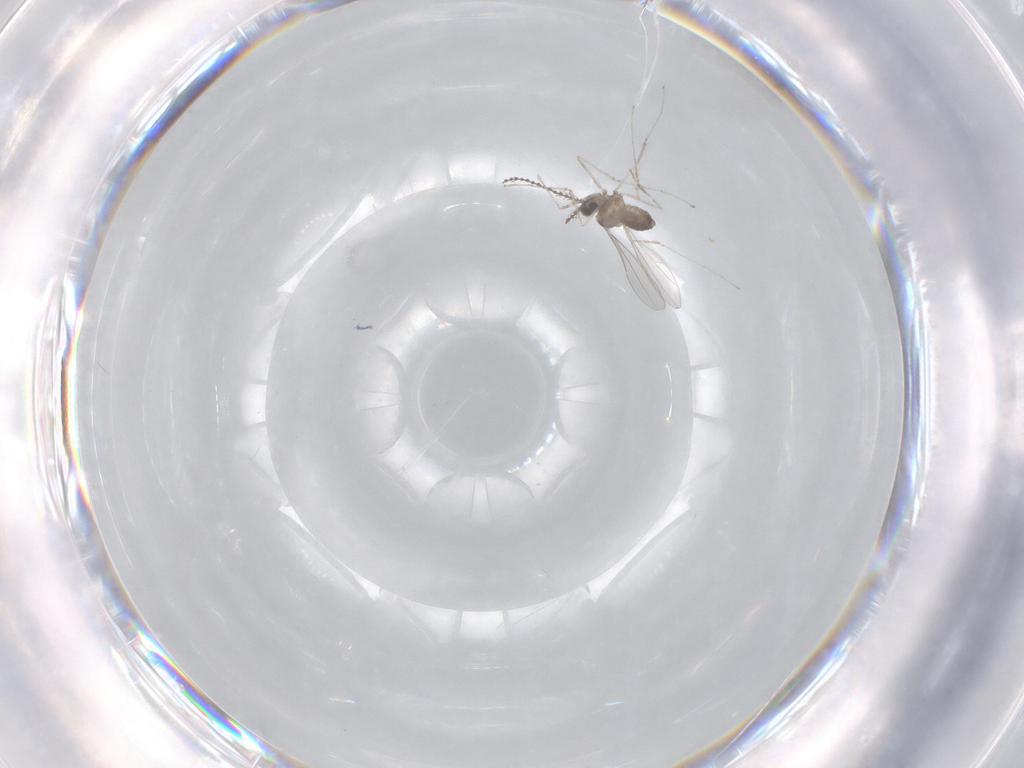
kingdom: Animalia
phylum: Arthropoda
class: Insecta
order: Diptera
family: Cecidomyiidae
